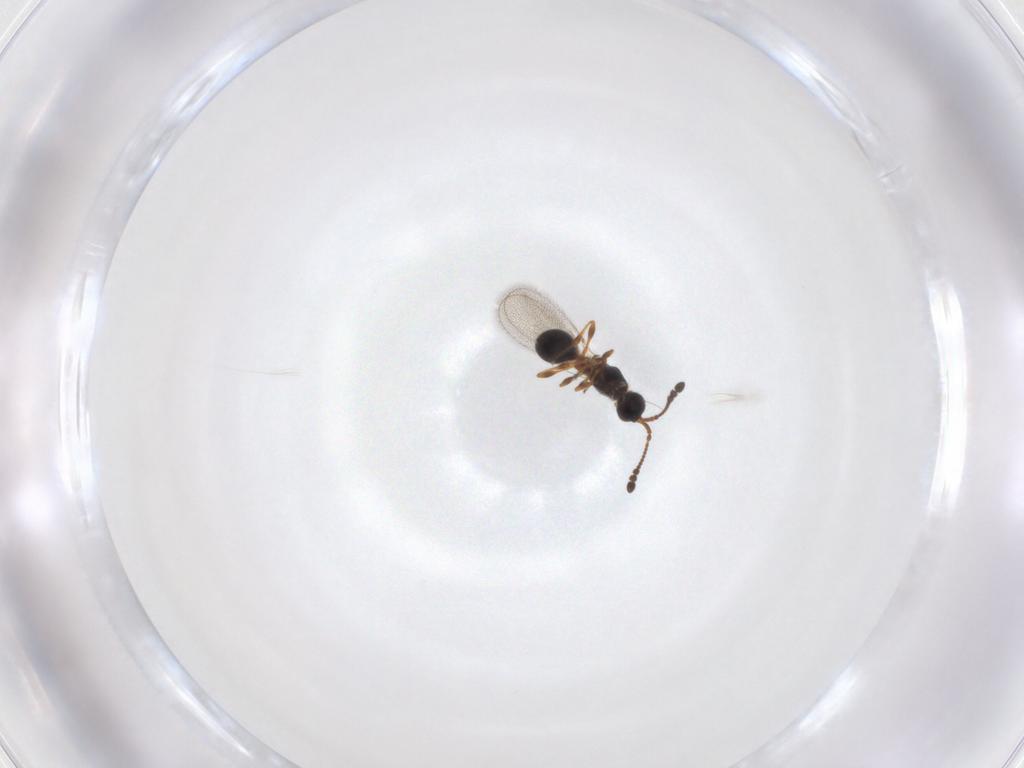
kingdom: Animalia
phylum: Arthropoda
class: Insecta
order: Hymenoptera
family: Diapriidae
